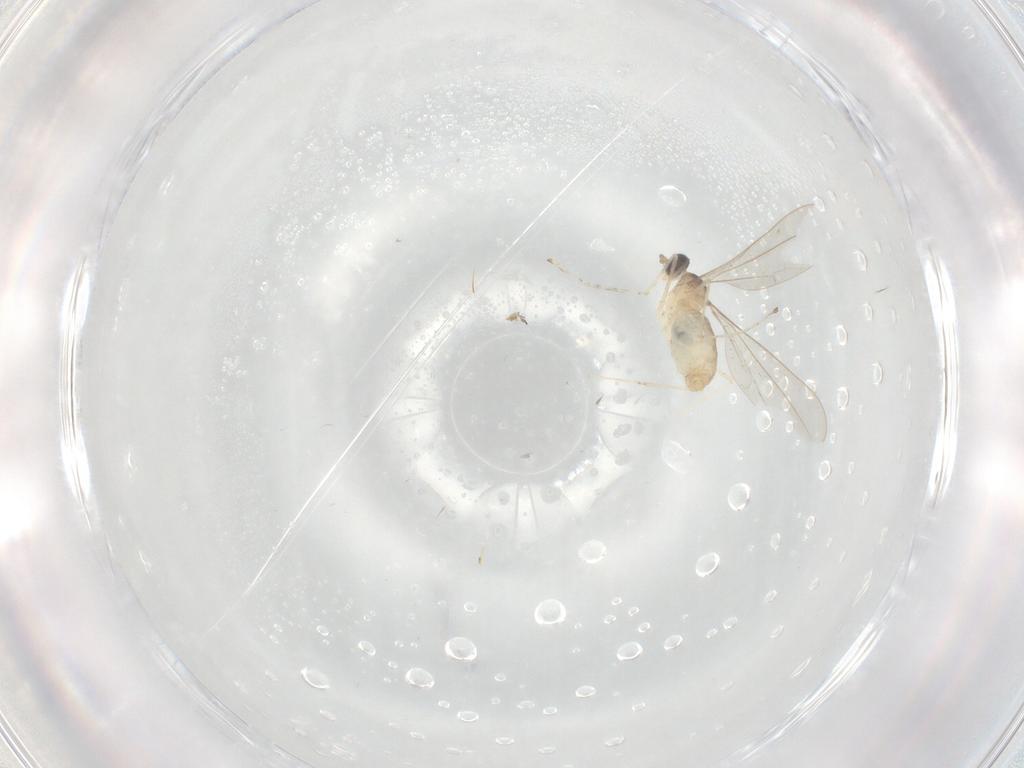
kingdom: Animalia
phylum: Arthropoda
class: Insecta
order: Diptera
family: Cecidomyiidae
